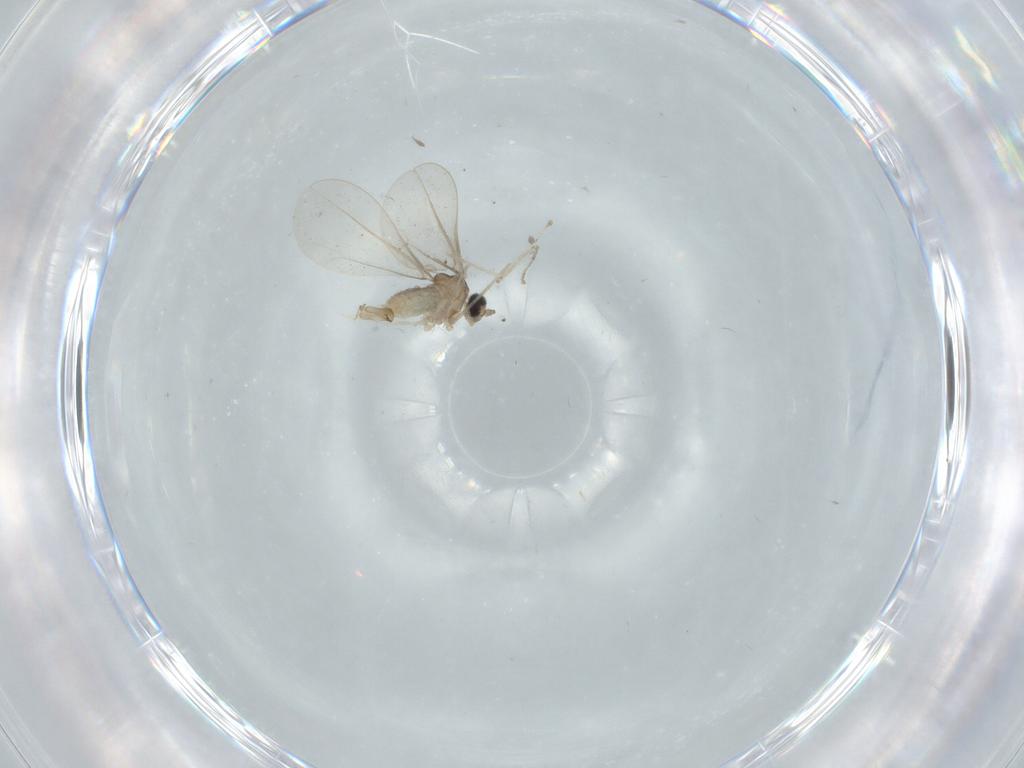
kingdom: Animalia
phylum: Arthropoda
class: Insecta
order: Diptera
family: Cecidomyiidae
